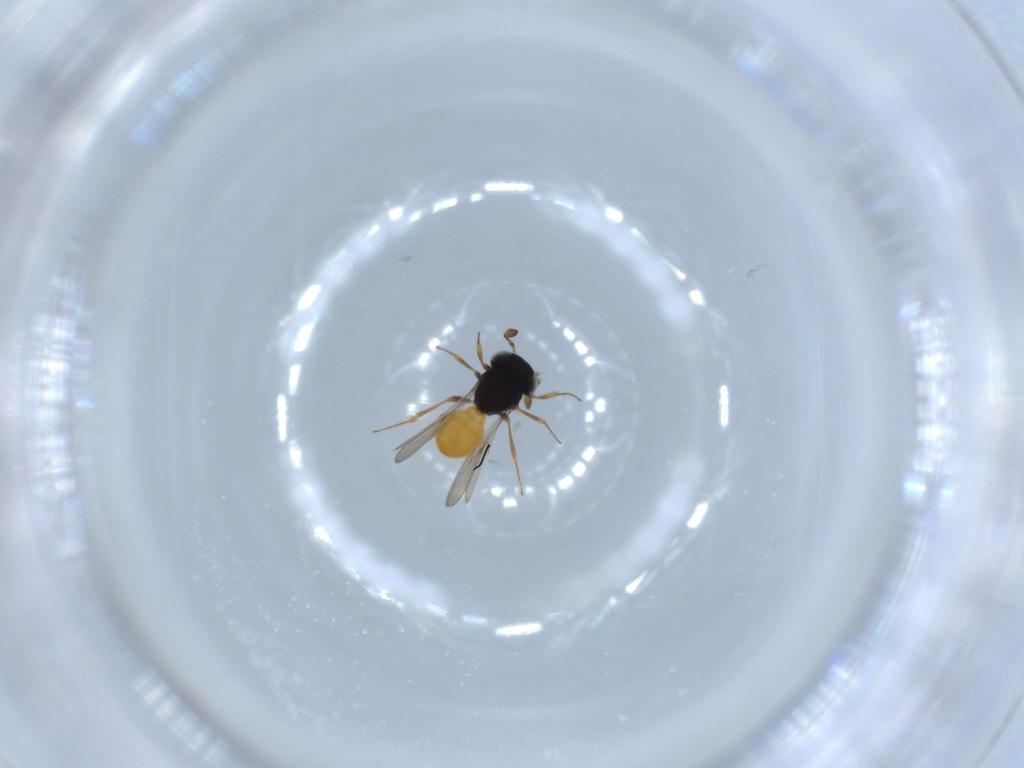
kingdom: Animalia
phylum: Arthropoda
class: Insecta
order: Hymenoptera
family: Scelionidae
